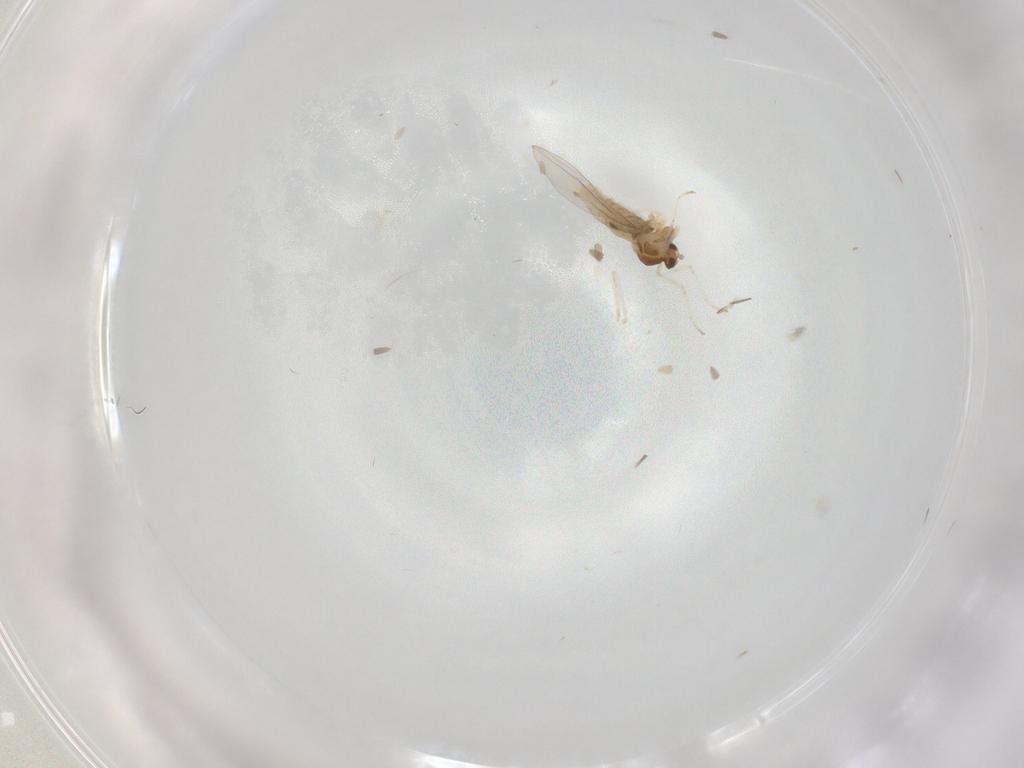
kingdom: Animalia
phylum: Arthropoda
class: Insecta
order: Diptera
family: Cecidomyiidae
